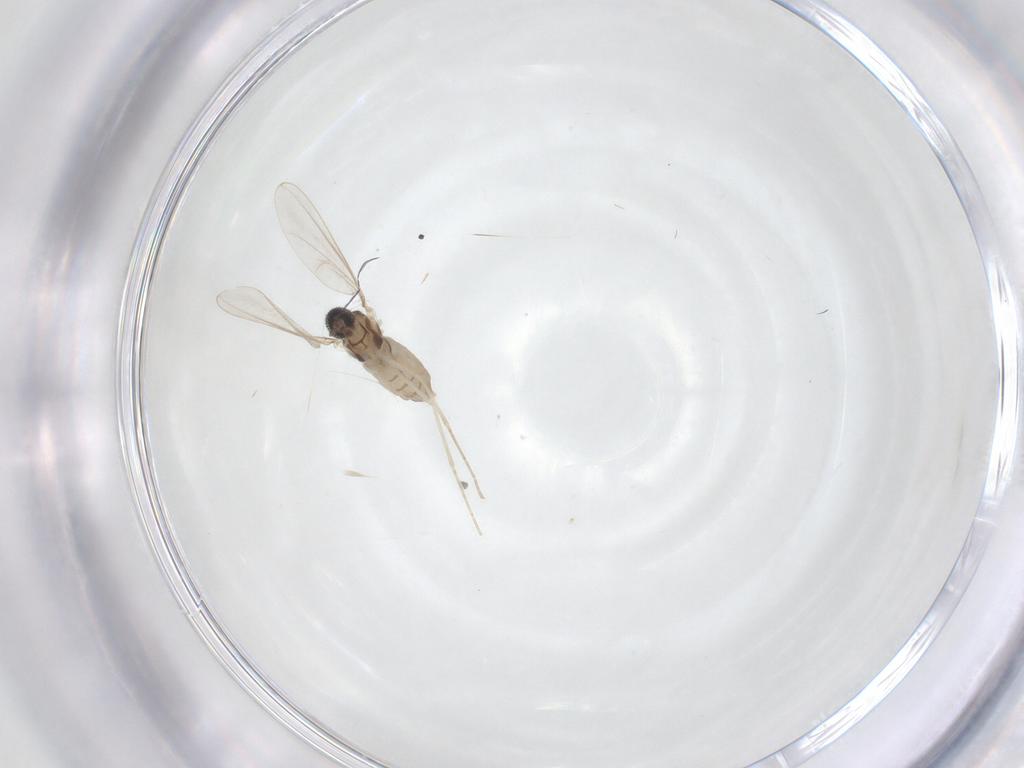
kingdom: Animalia
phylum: Arthropoda
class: Insecta
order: Diptera
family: Cecidomyiidae
